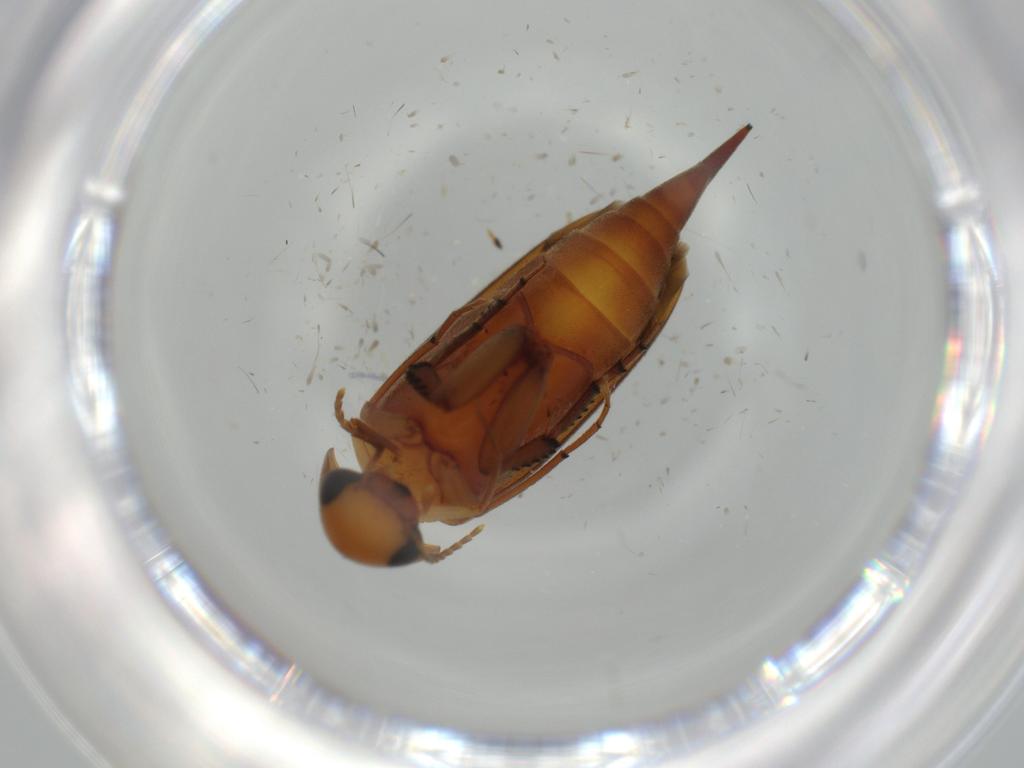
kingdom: Animalia
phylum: Arthropoda
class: Insecta
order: Coleoptera
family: Mordellidae
